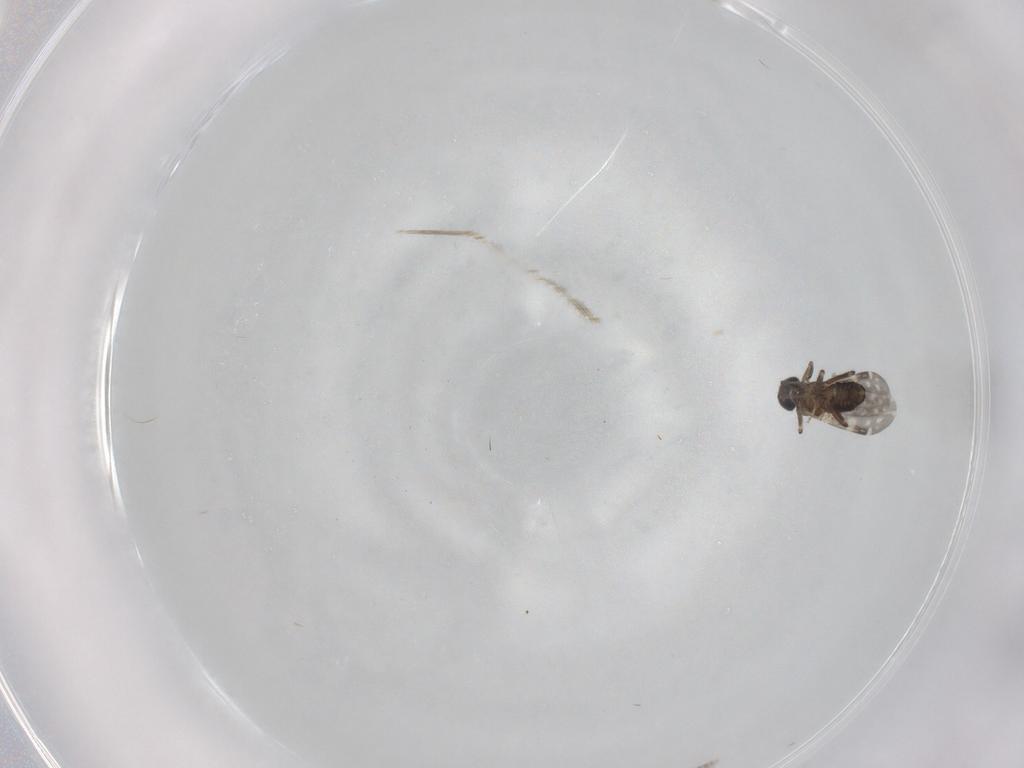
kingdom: Animalia
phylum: Arthropoda
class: Insecta
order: Diptera
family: Ceratopogonidae
